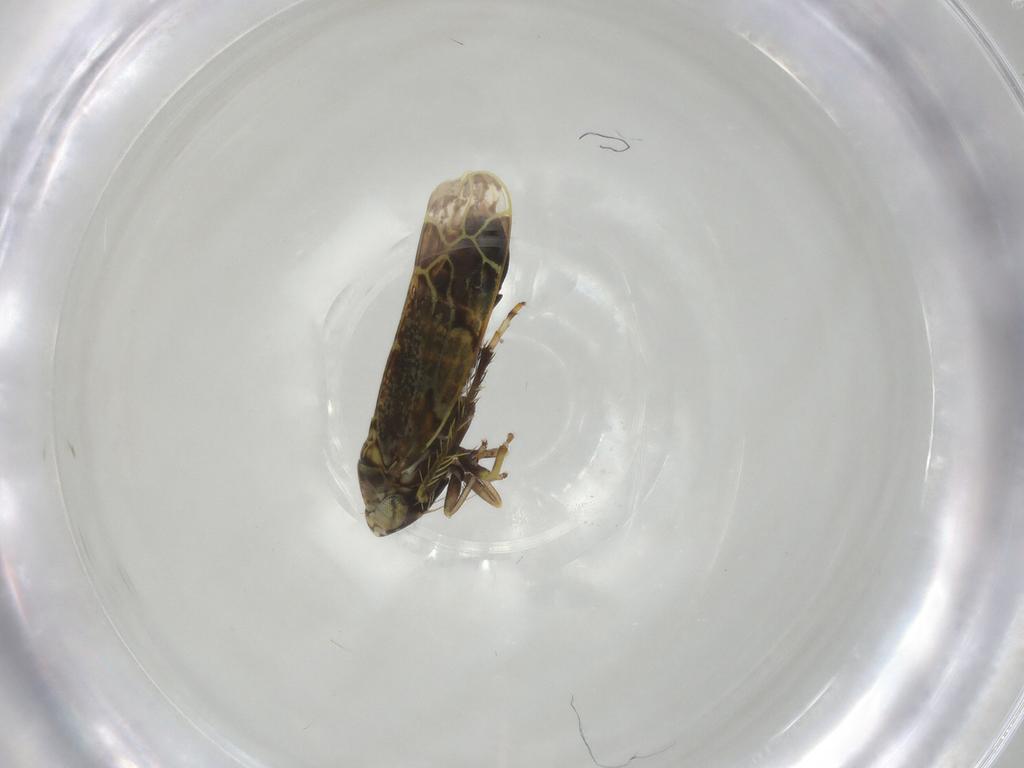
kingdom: Animalia
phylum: Arthropoda
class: Insecta
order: Hemiptera
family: Cicadellidae
